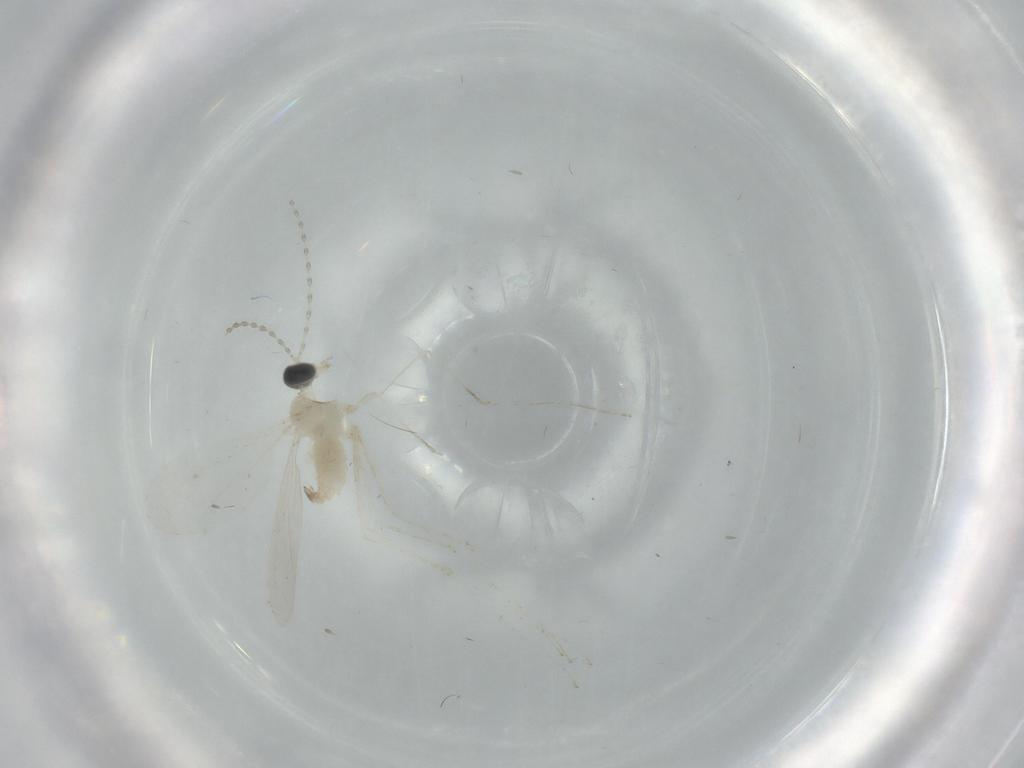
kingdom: Animalia
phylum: Arthropoda
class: Insecta
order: Diptera
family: Cecidomyiidae
